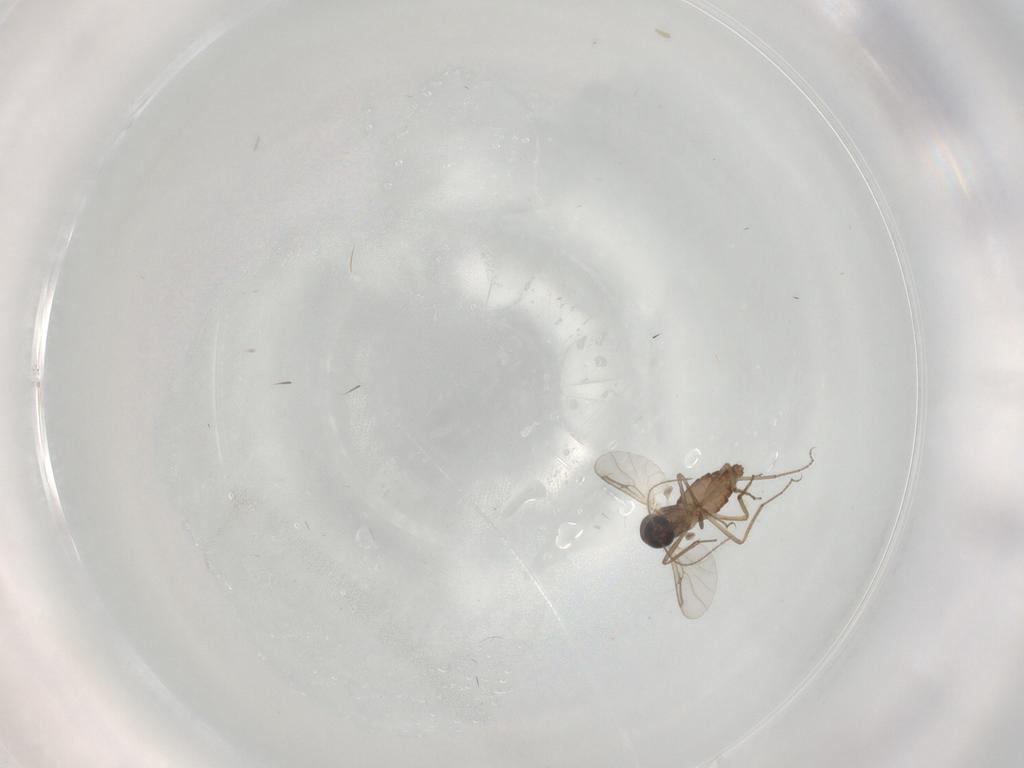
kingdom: Animalia
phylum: Arthropoda
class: Insecta
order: Diptera
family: Ceratopogonidae
